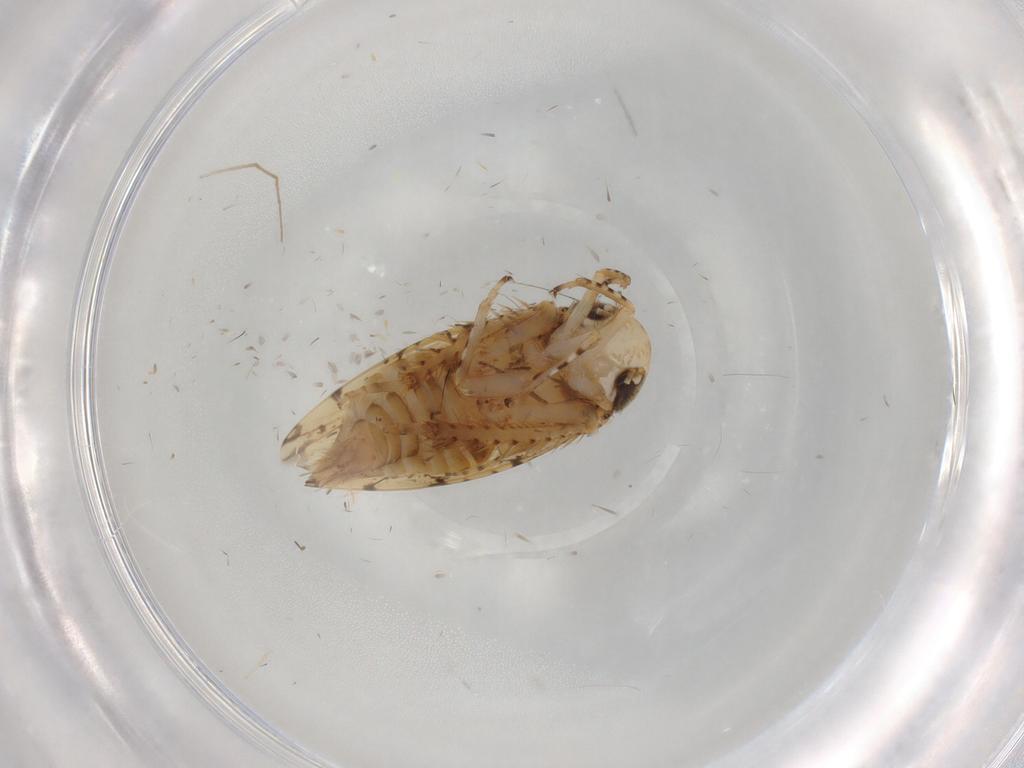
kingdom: Animalia
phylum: Arthropoda
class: Insecta
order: Hemiptera
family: Cicadellidae
